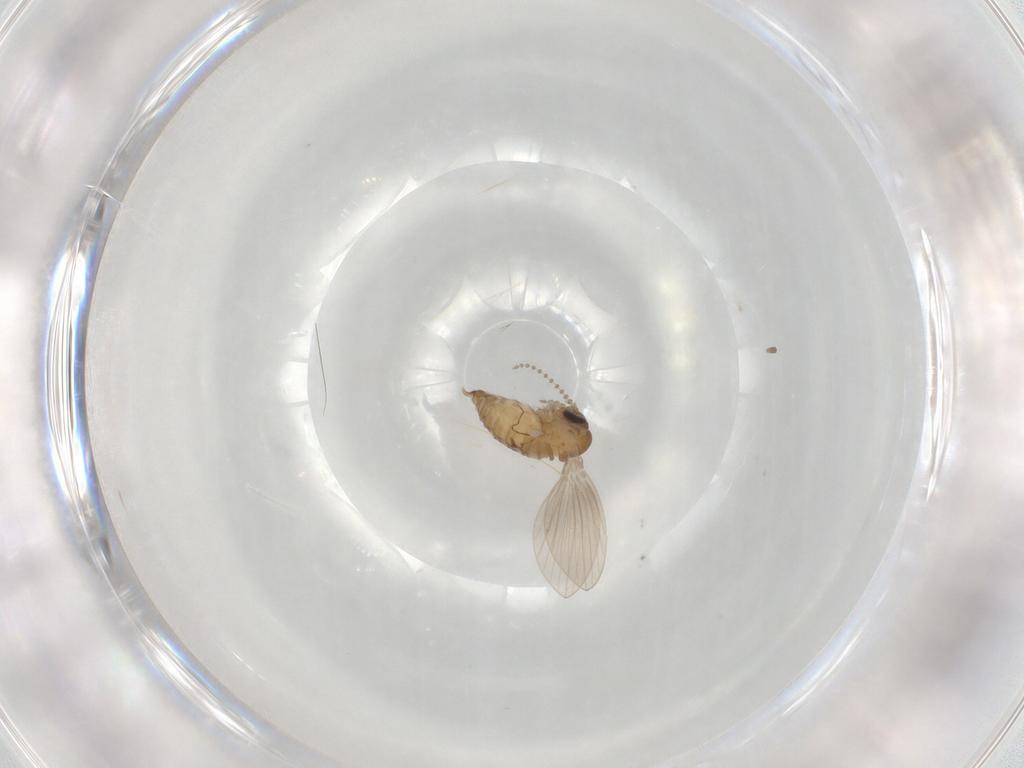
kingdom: Animalia
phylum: Arthropoda
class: Insecta
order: Diptera
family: Psychodidae
